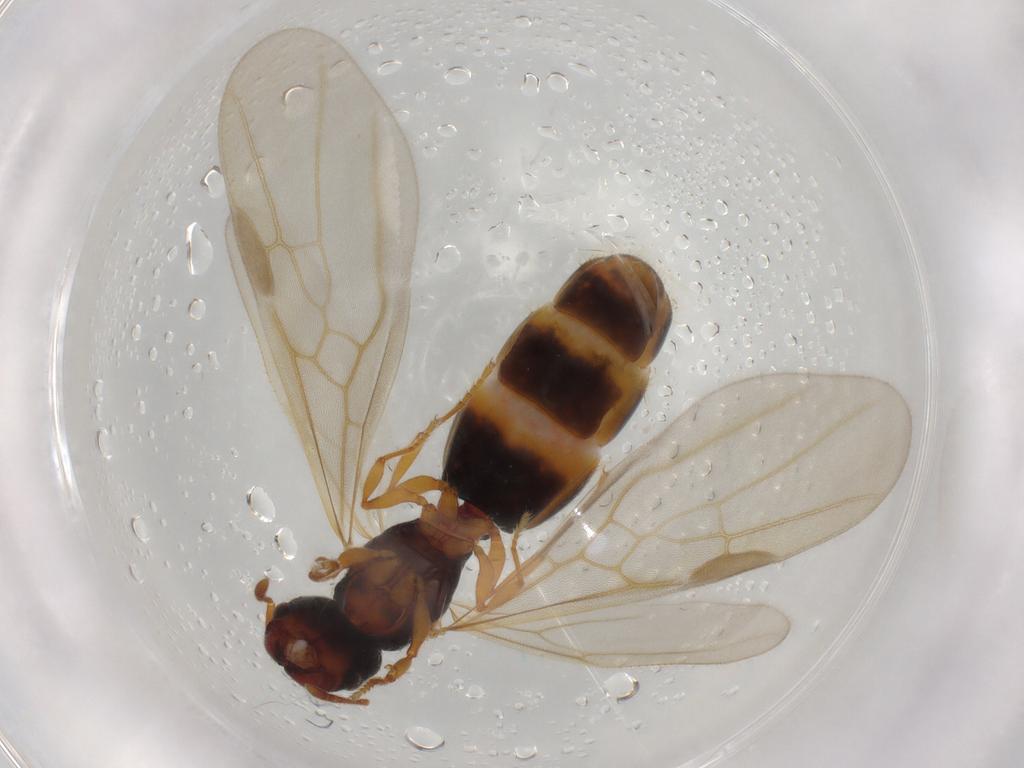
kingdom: Animalia
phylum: Arthropoda
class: Insecta
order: Hymenoptera
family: Formicidae
